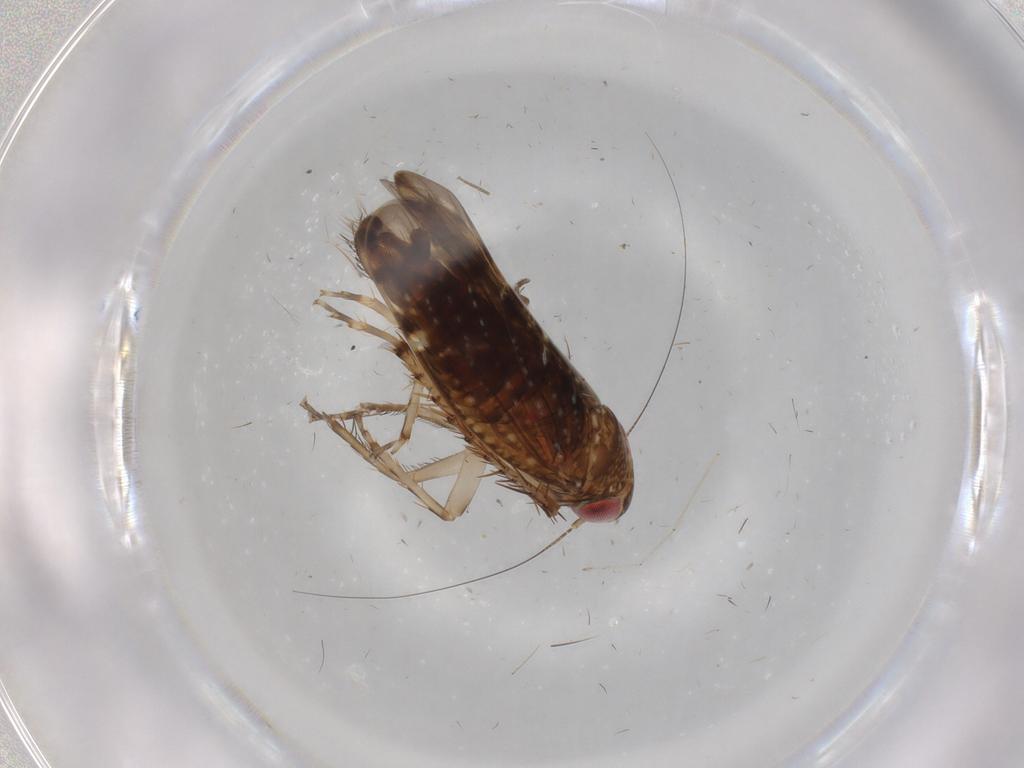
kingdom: Animalia
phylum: Arthropoda
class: Insecta
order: Hemiptera
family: Cicadellidae
